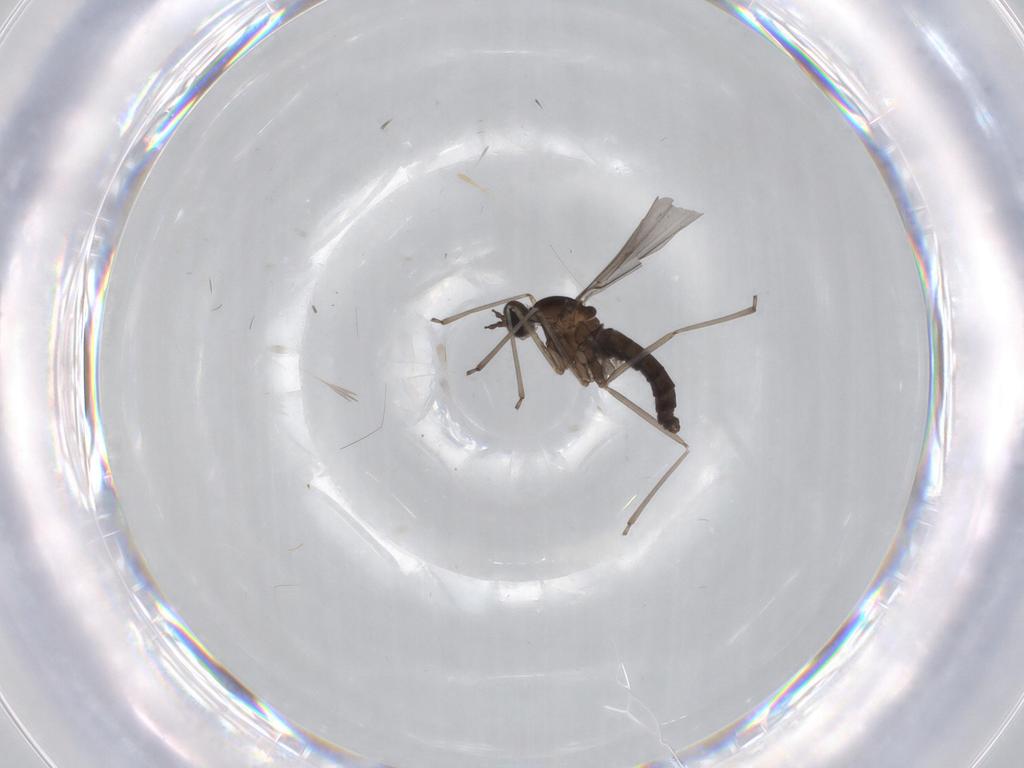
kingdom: Animalia
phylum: Arthropoda
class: Insecta
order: Diptera
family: Cecidomyiidae
